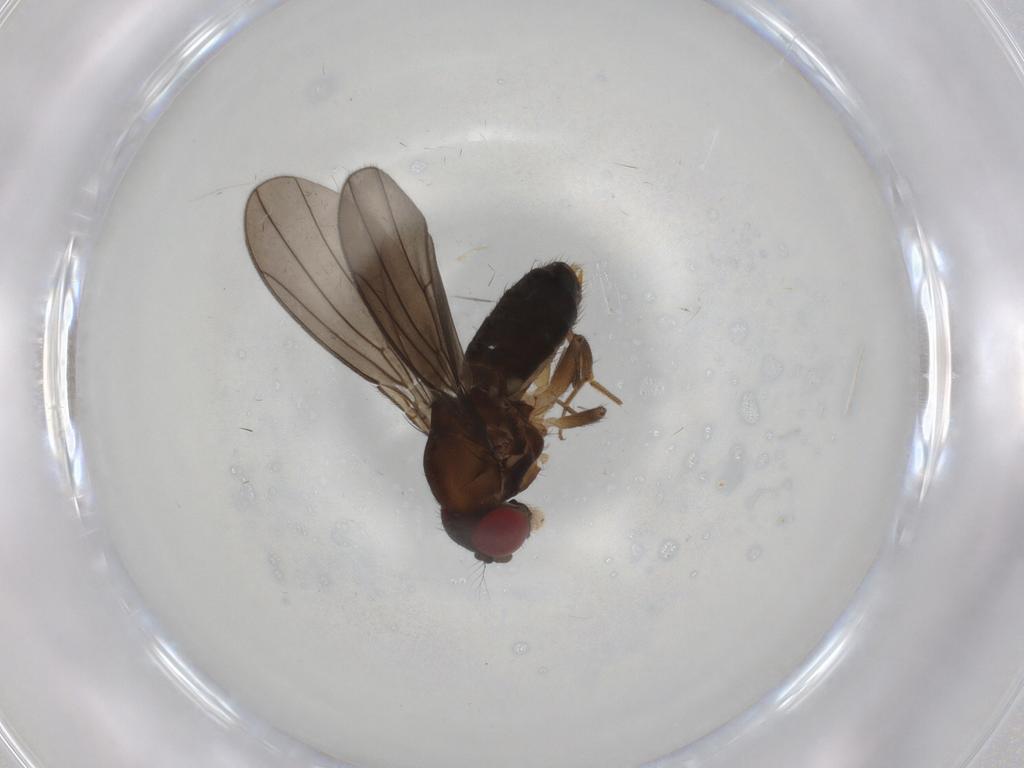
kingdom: Animalia
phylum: Arthropoda
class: Insecta
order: Diptera
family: Drosophilidae
